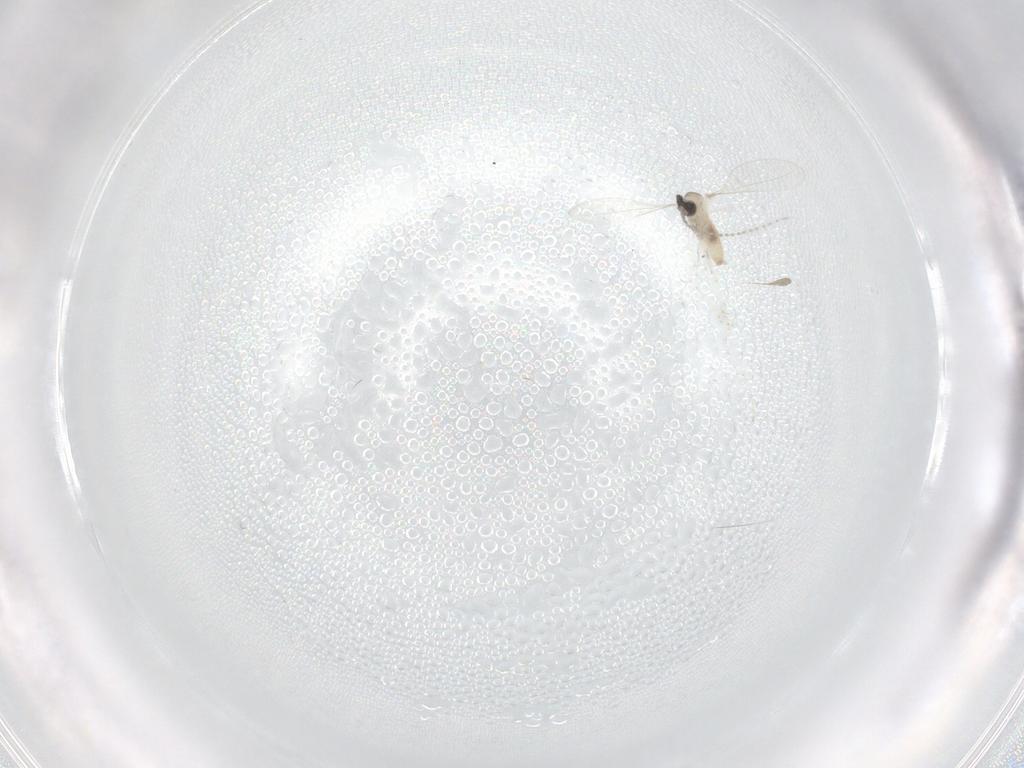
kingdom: Animalia
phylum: Arthropoda
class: Insecta
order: Diptera
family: Cecidomyiidae
